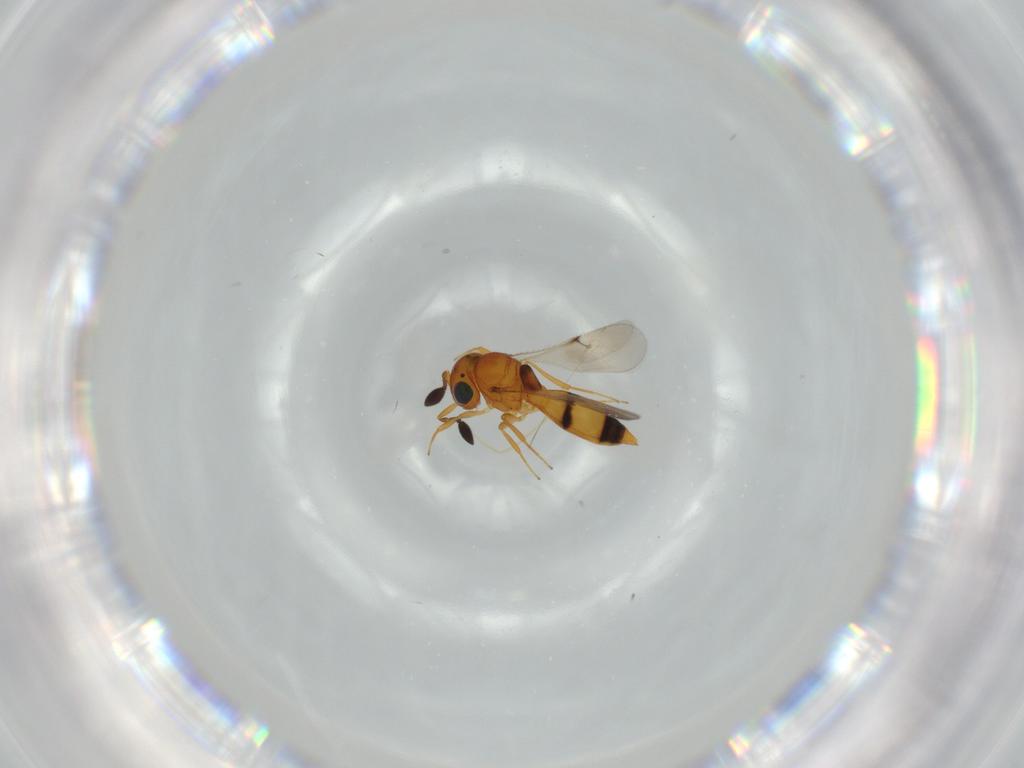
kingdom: Animalia
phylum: Arthropoda
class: Insecta
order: Hymenoptera
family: Scelionidae
